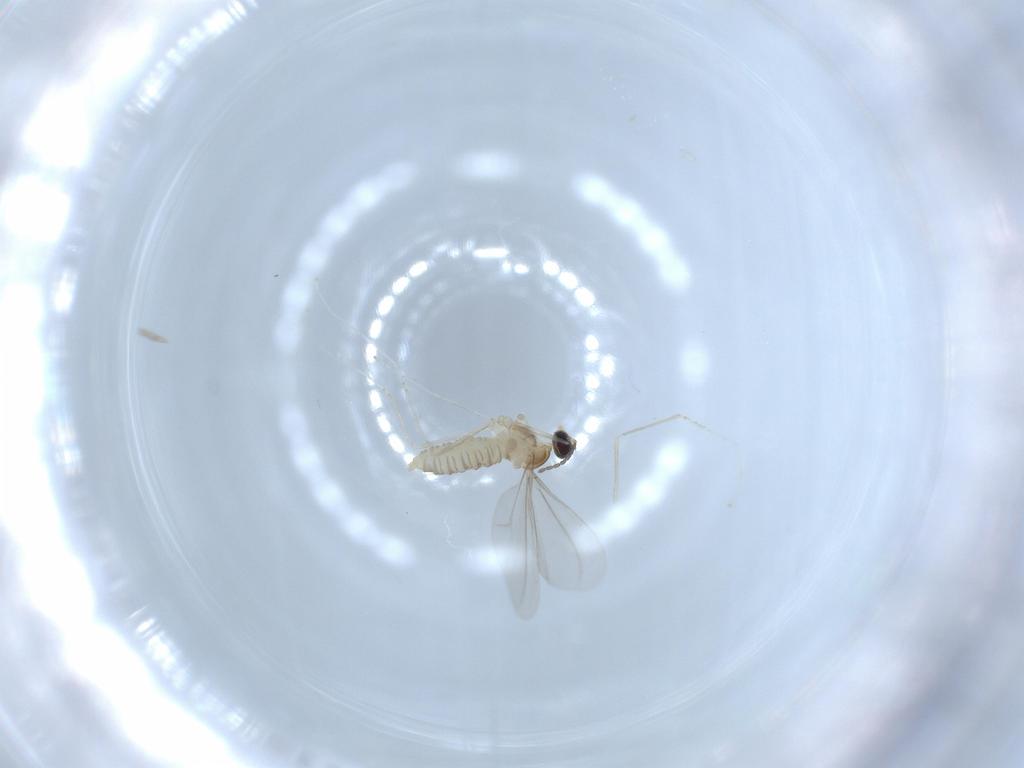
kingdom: Animalia
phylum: Arthropoda
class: Insecta
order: Diptera
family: Cecidomyiidae
